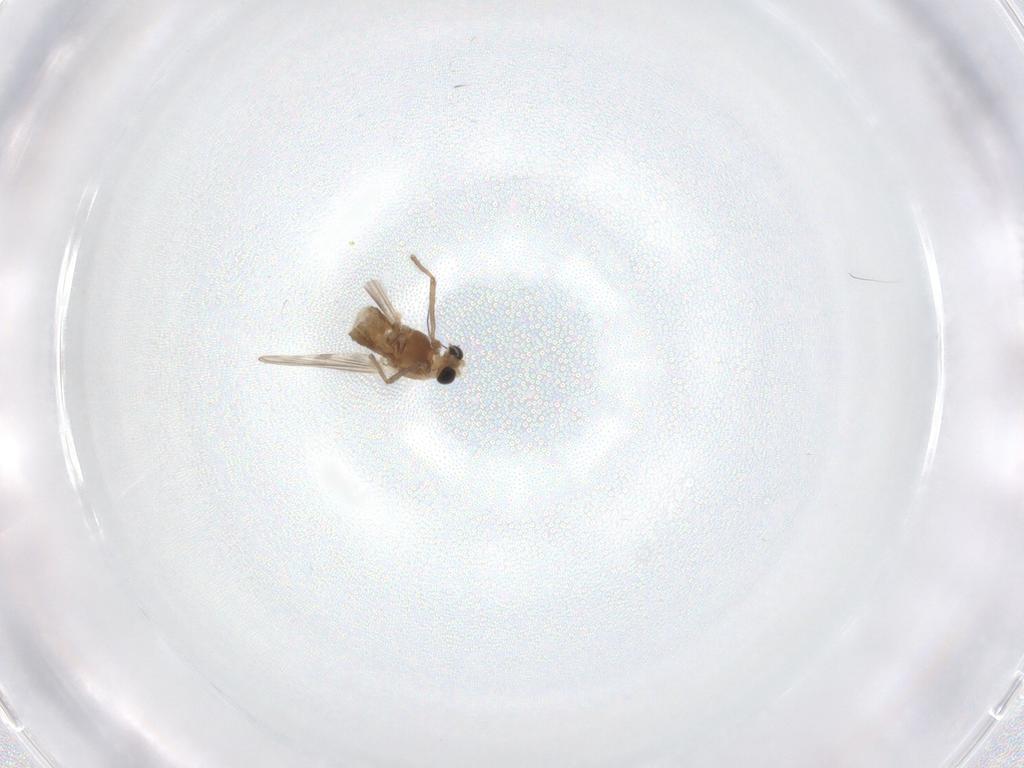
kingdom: Animalia
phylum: Arthropoda
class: Insecta
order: Diptera
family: Chironomidae
